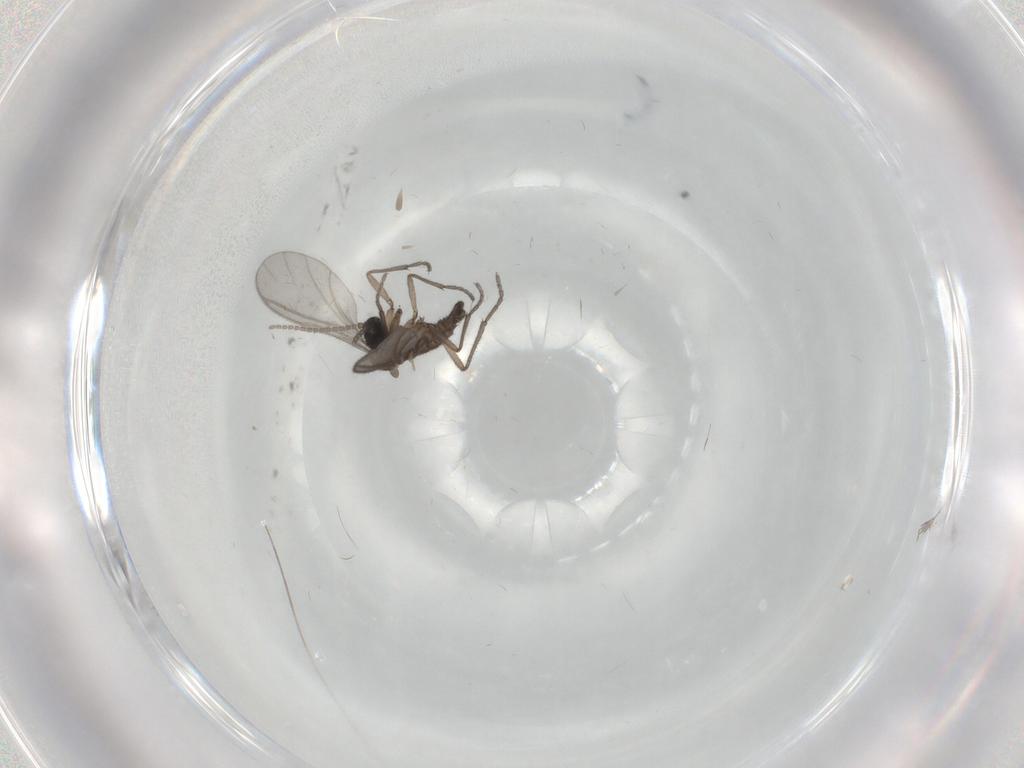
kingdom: Animalia
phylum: Arthropoda
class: Insecta
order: Diptera
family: Sciaridae
